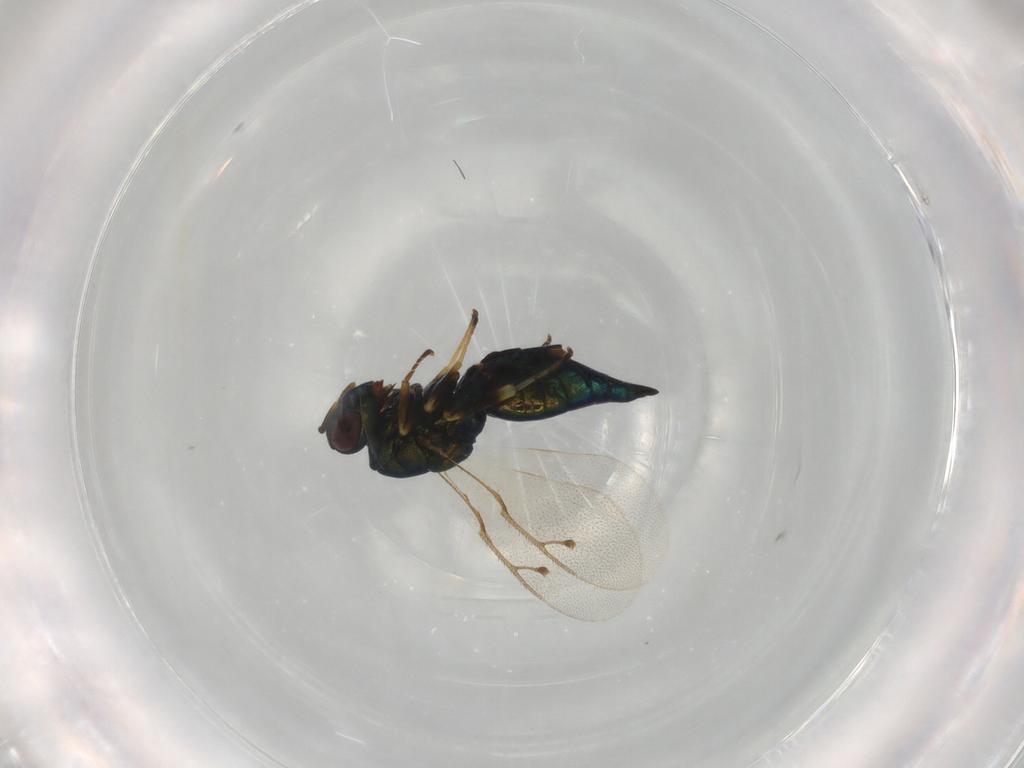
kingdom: Animalia
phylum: Arthropoda
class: Insecta
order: Hymenoptera
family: Pteromalidae
